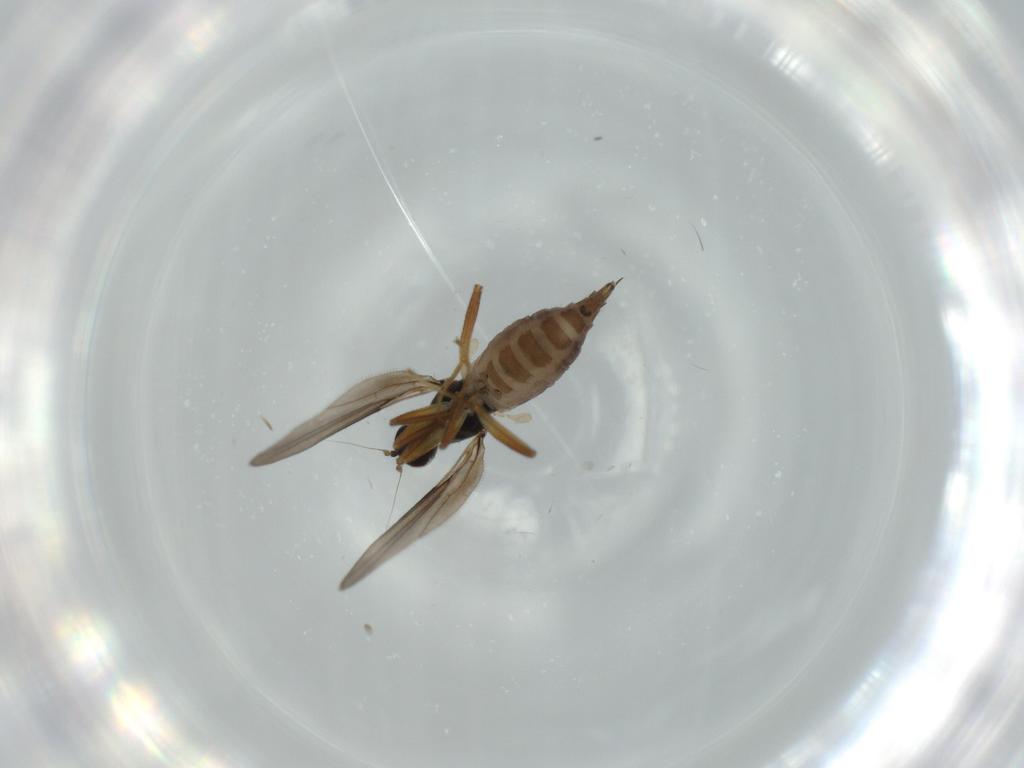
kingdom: Animalia
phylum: Arthropoda
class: Insecta
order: Diptera
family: Hybotidae
